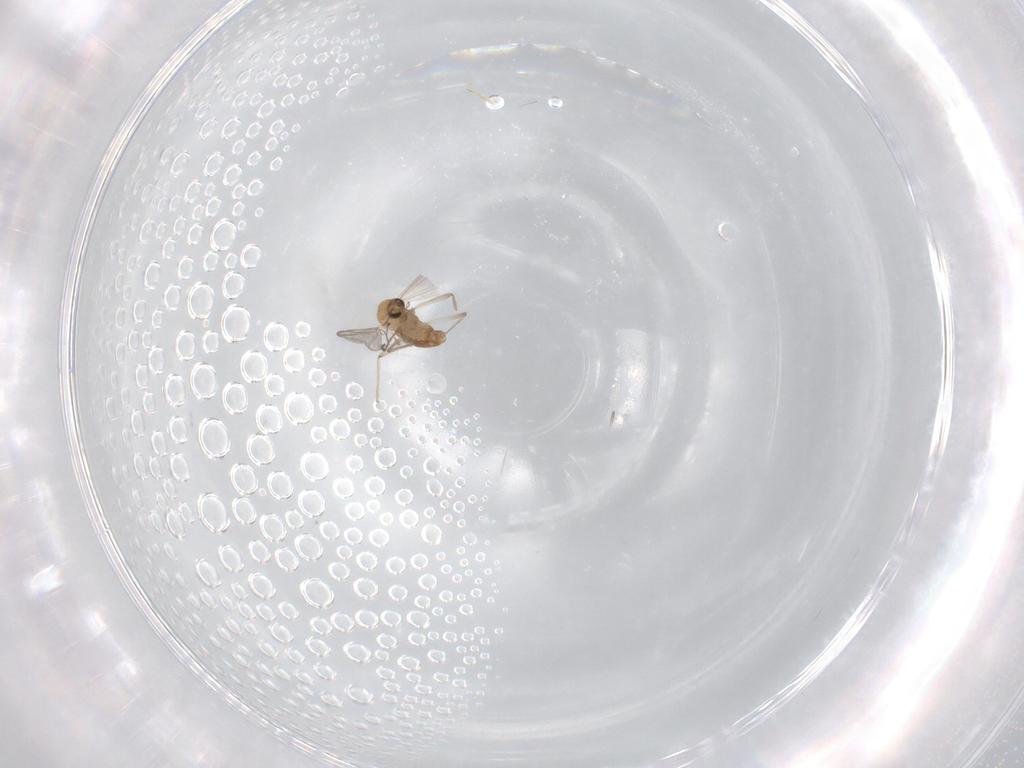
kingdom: Animalia
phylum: Arthropoda
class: Insecta
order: Diptera
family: Chironomidae
